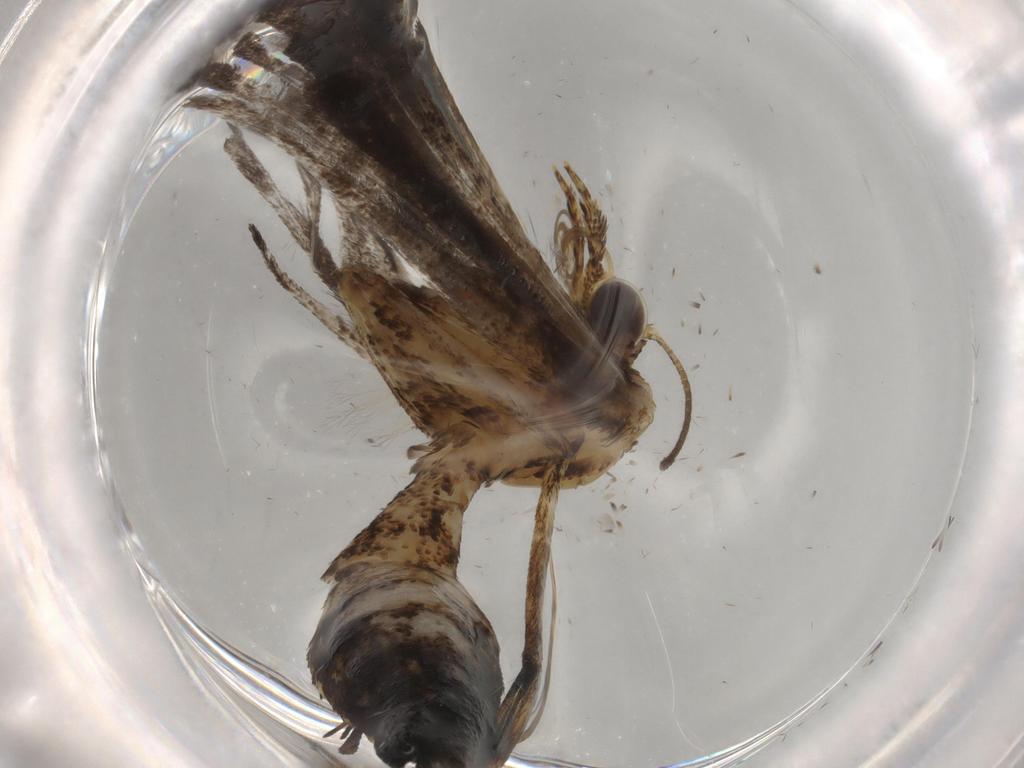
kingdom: Animalia
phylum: Arthropoda
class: Insecta
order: Lepidoptera
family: Pterophoridae
